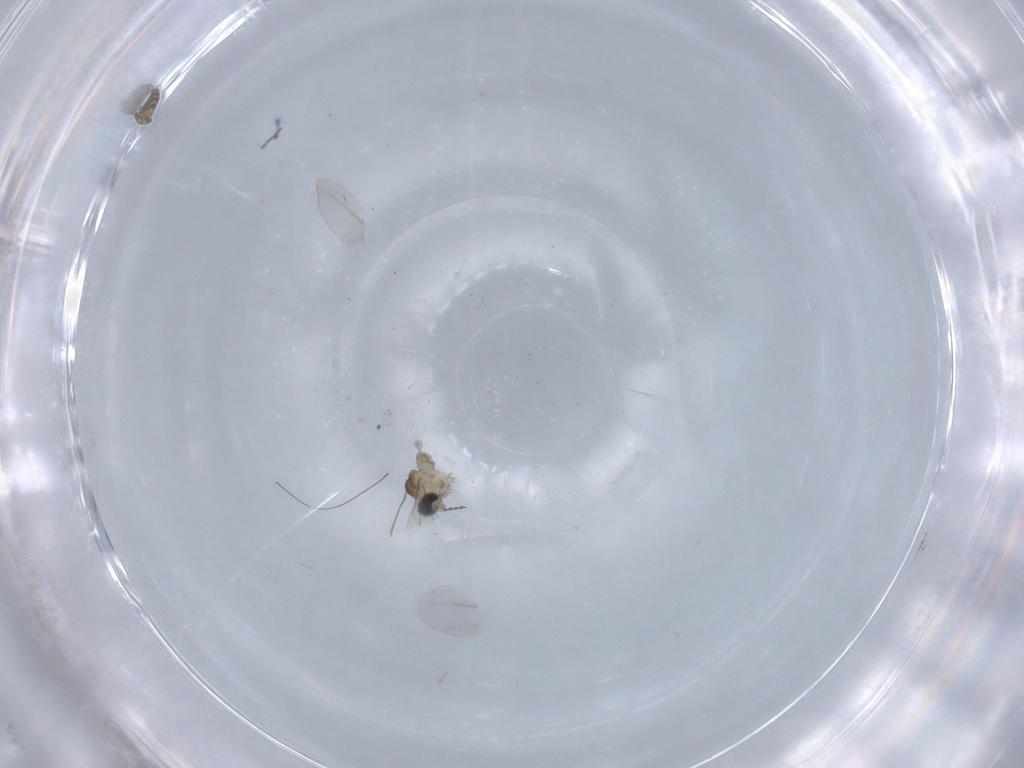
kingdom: Animalia
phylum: Arthropoda
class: Insecta
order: Diptera
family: Cecidomyiidae
